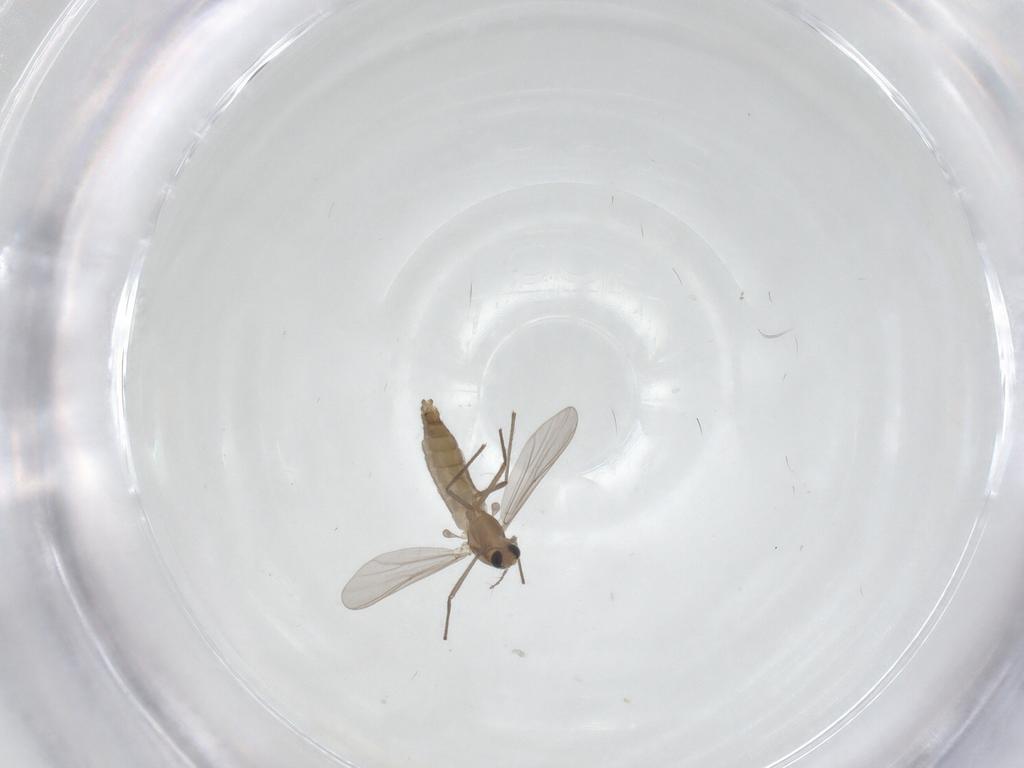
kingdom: Animalia
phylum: Arthropoda
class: Insecta
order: Diptera
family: Cecidomyiidae
